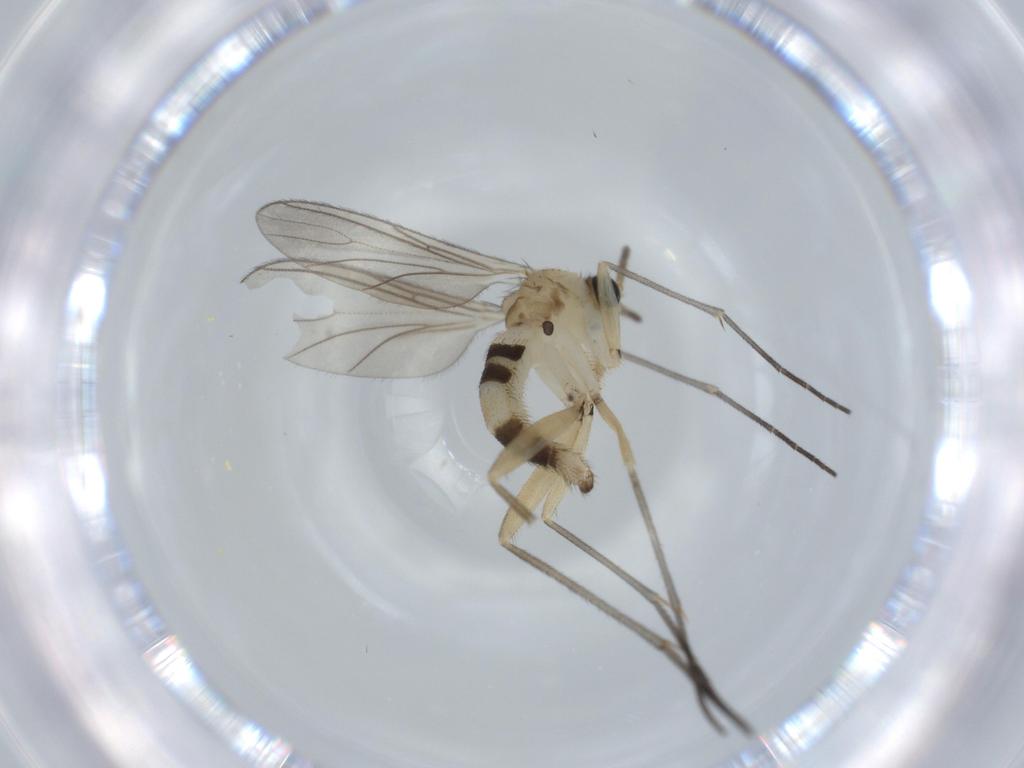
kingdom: Animalia
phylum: Arthropoda
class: Insecta
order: Diptera
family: Sciaridae
